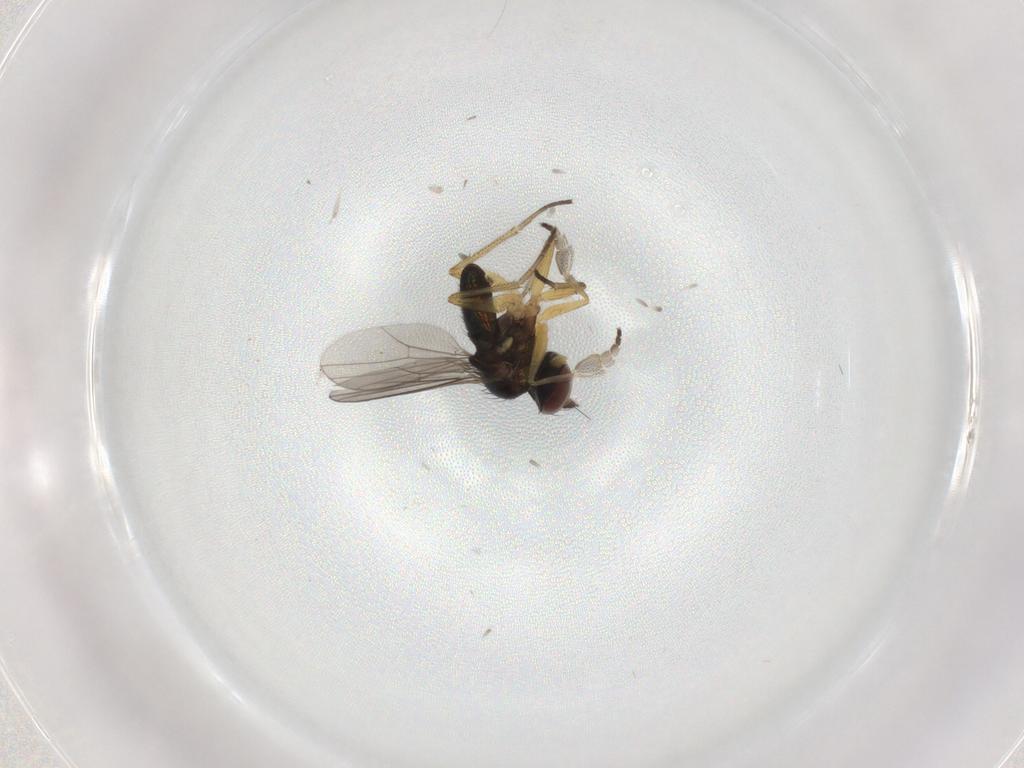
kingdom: Animalia
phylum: Arthropoda
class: Insecta
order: Diptera
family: Dolichopodidae
